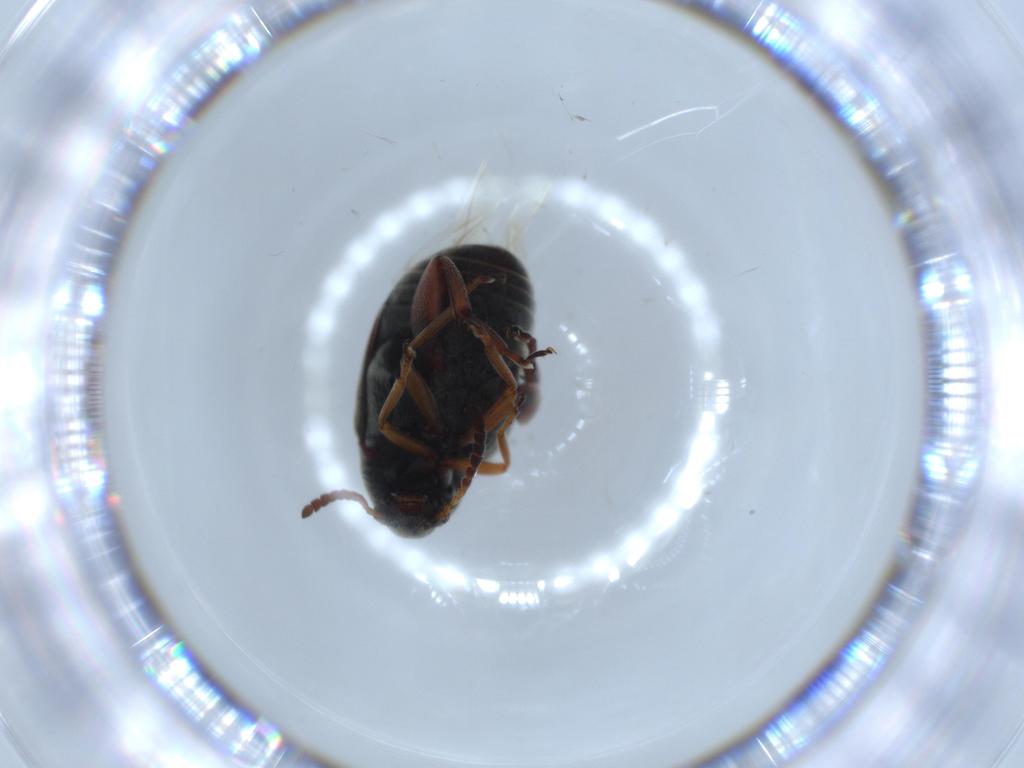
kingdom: Animalia
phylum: Arthropoda
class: Insecta
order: Coleoptera
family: Chrysomelidae
